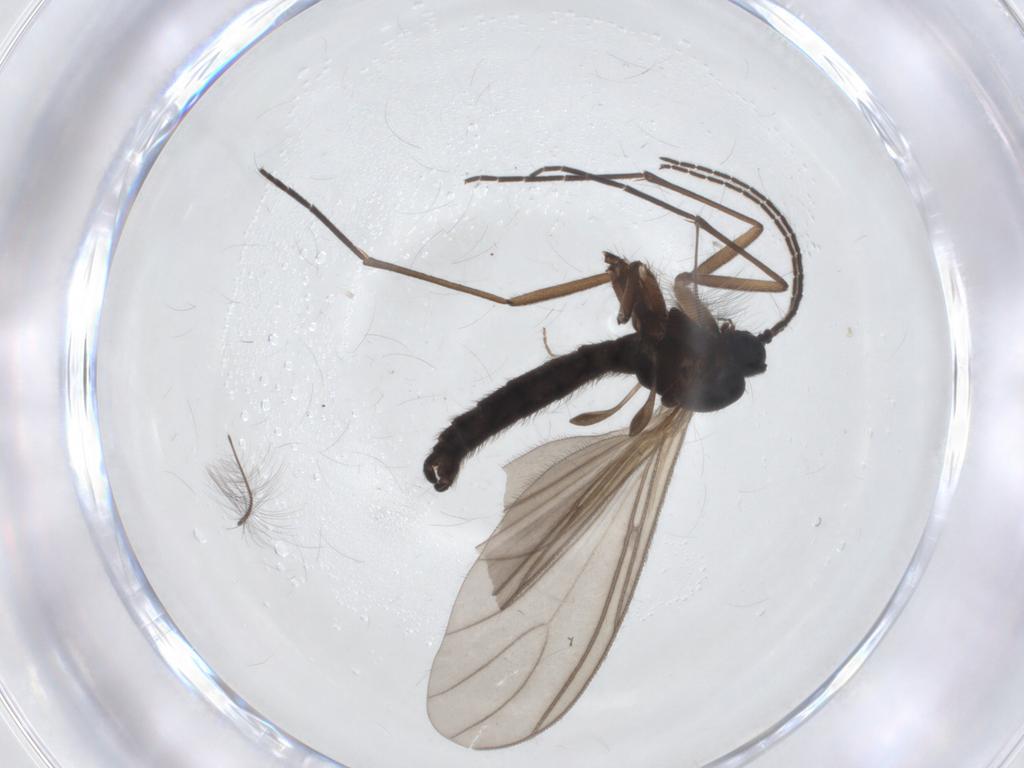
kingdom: Animalia
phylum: Arthropoda
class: Insecta
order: Diptera
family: Sciaridae
